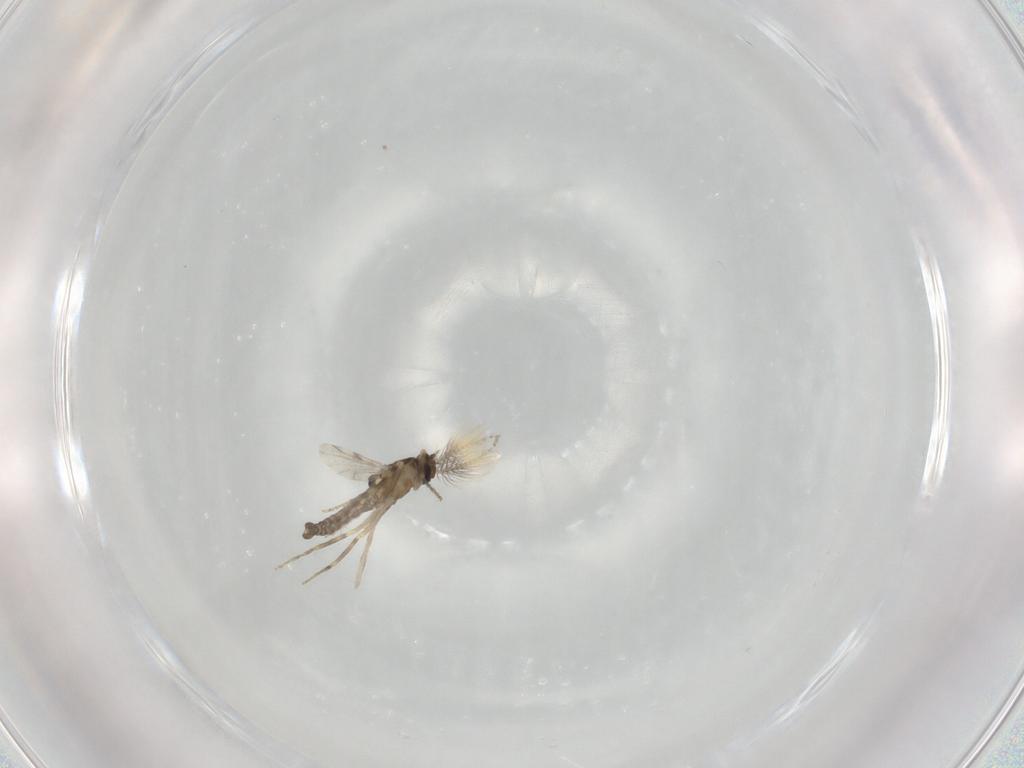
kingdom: Animalia
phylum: Arthropoda
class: Insecta
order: Diptera
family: Ceratopogonidae
